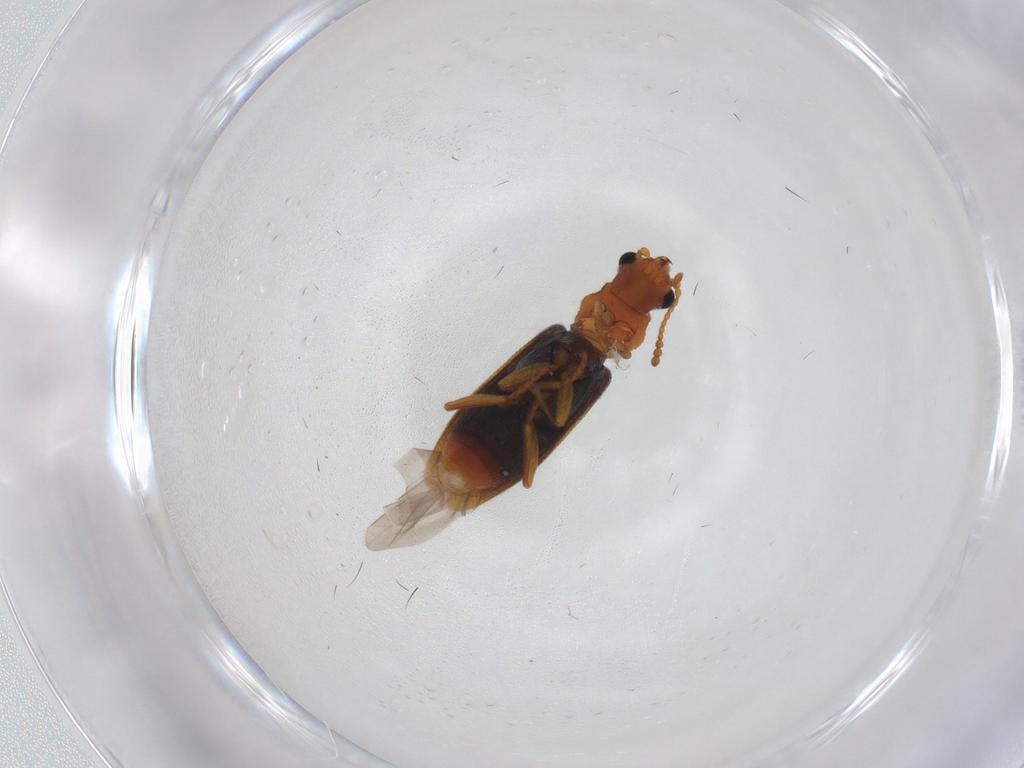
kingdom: Animalia
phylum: Arthropoda
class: Insecta
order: Coleoptera
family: Melyridae
